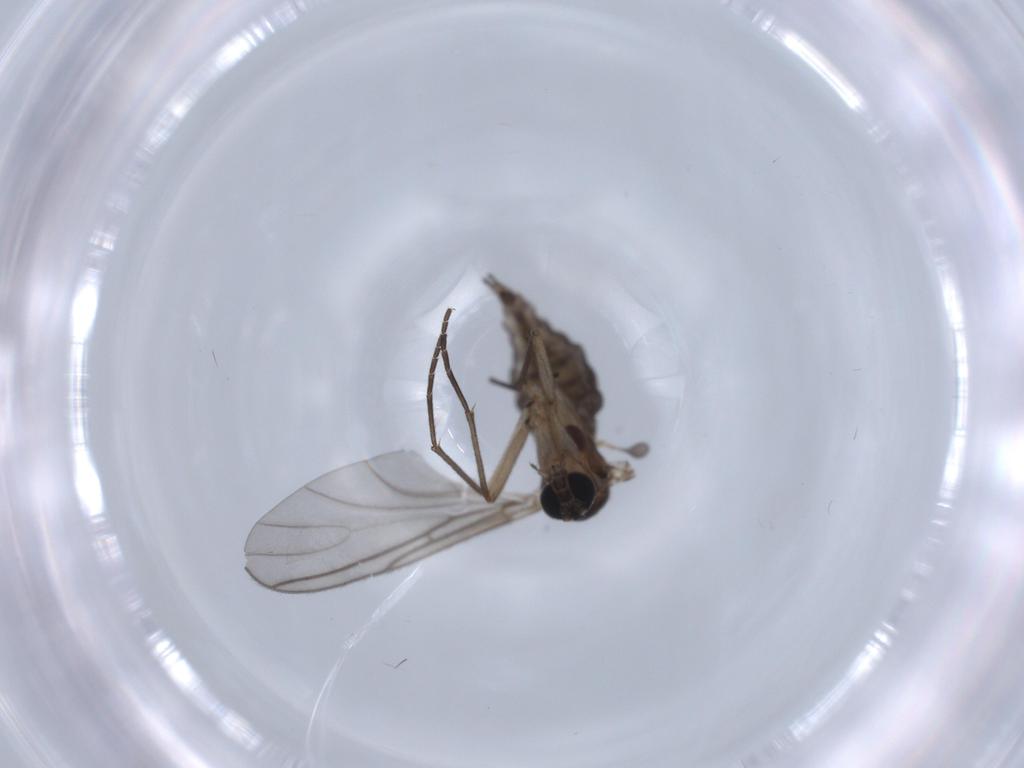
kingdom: Animalia
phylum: Arthropoda
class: Insecta
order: Diptera
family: Sciaridae
